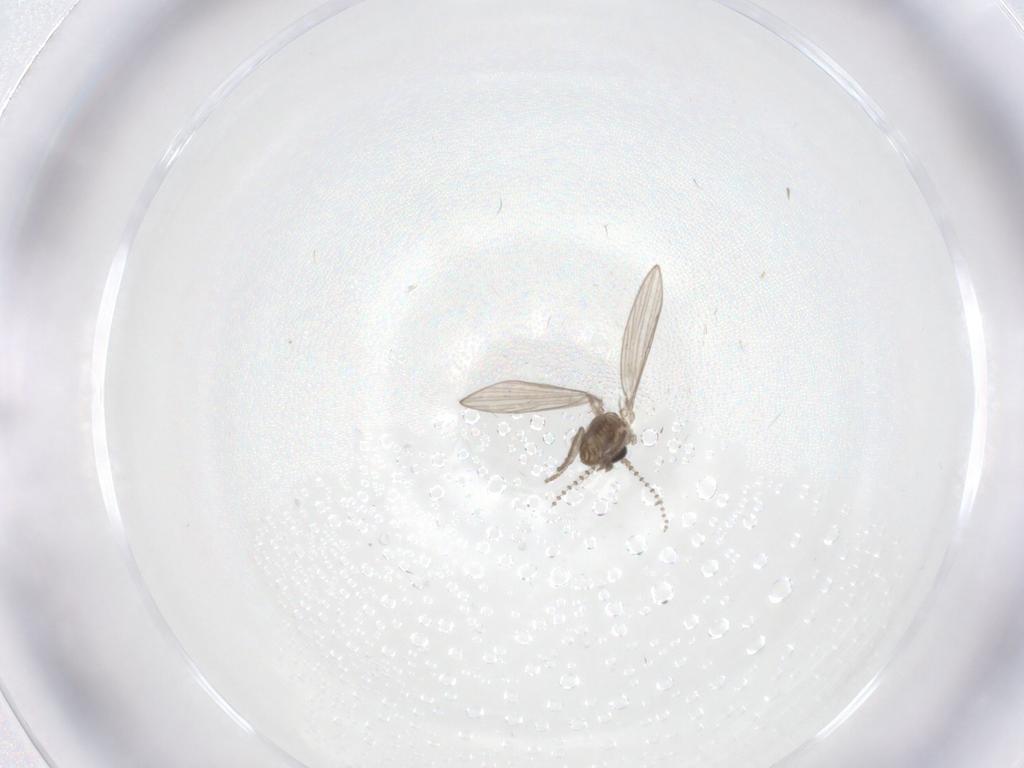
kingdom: Animalia
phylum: Arthropoda
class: Insecta
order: Diptera
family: Psychodidae
